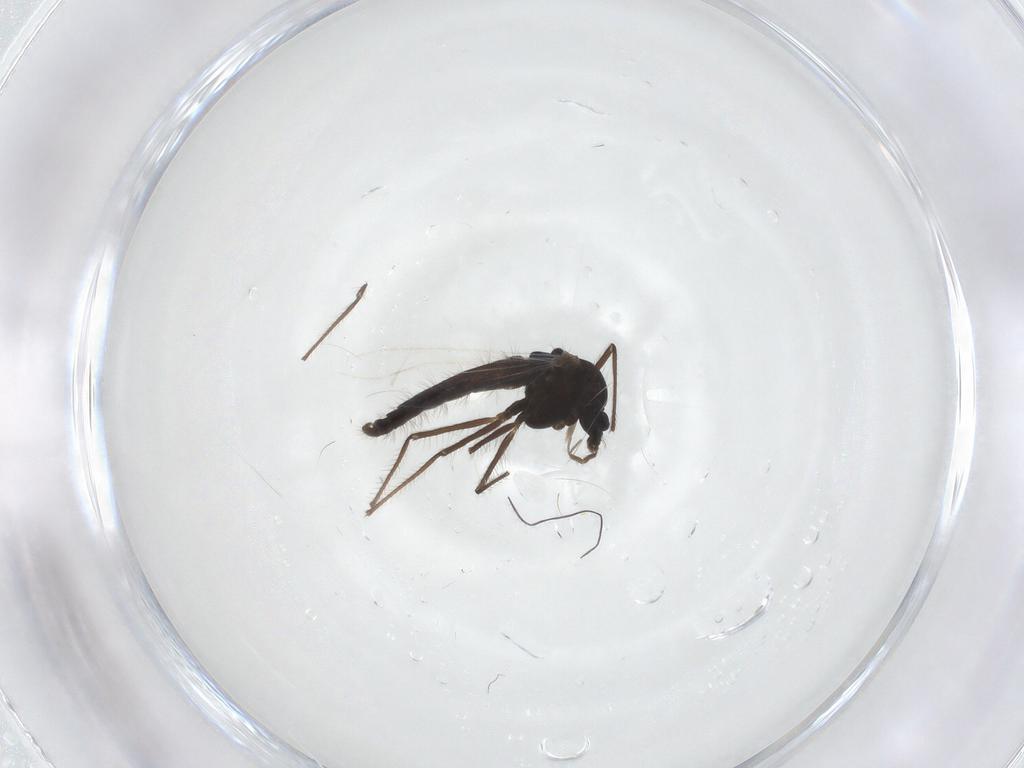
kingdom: Animalia
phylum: Arthropoda
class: Insecta
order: Diptera
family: Chironomidae
